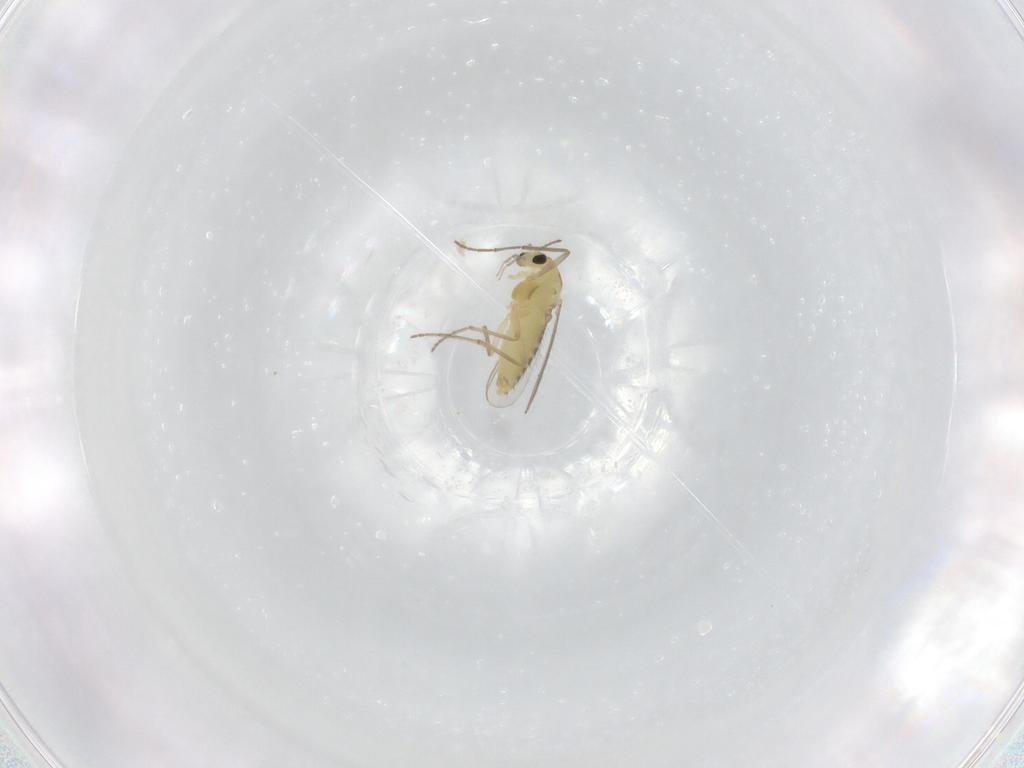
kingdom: Animalia
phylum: Arthropoda
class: Insecta
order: Diptera
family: Chironomidae
